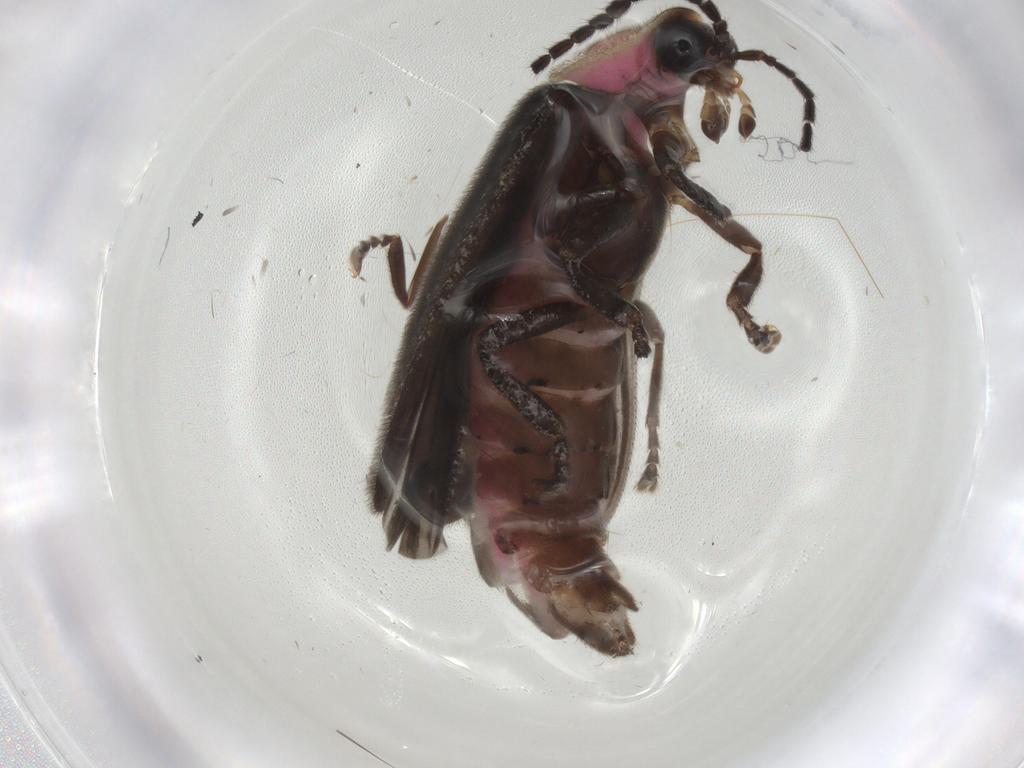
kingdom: Animalia
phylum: Arthropoda
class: Insecta
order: Coleoptera
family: Lampyridae
